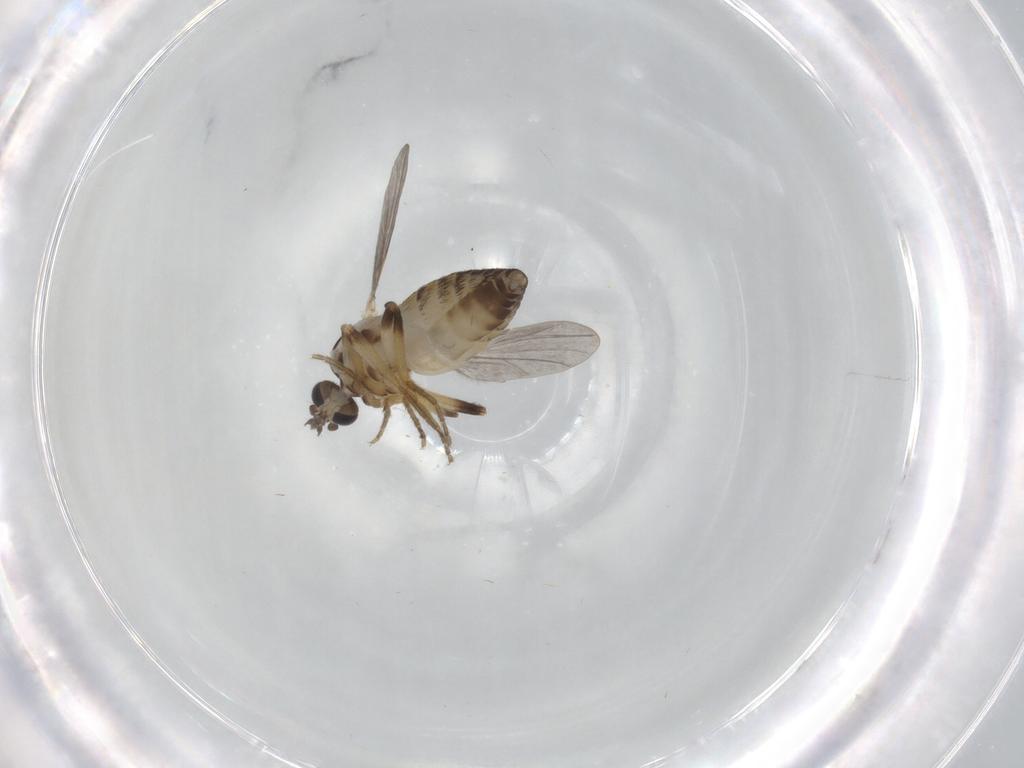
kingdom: Animalia
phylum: Arthropoda
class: Insecta
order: Diptera
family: Ceratopogonidae
